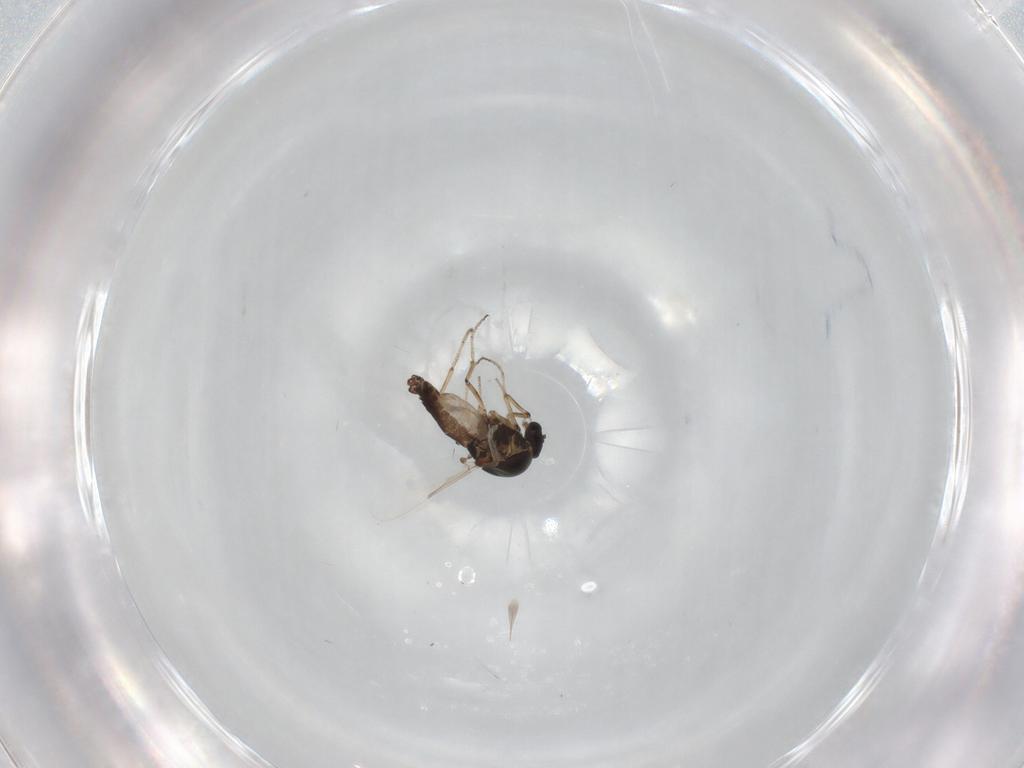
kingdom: Animalia
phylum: Arthropoda
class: Insecta
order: Diptera
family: Ceratopogonidae
